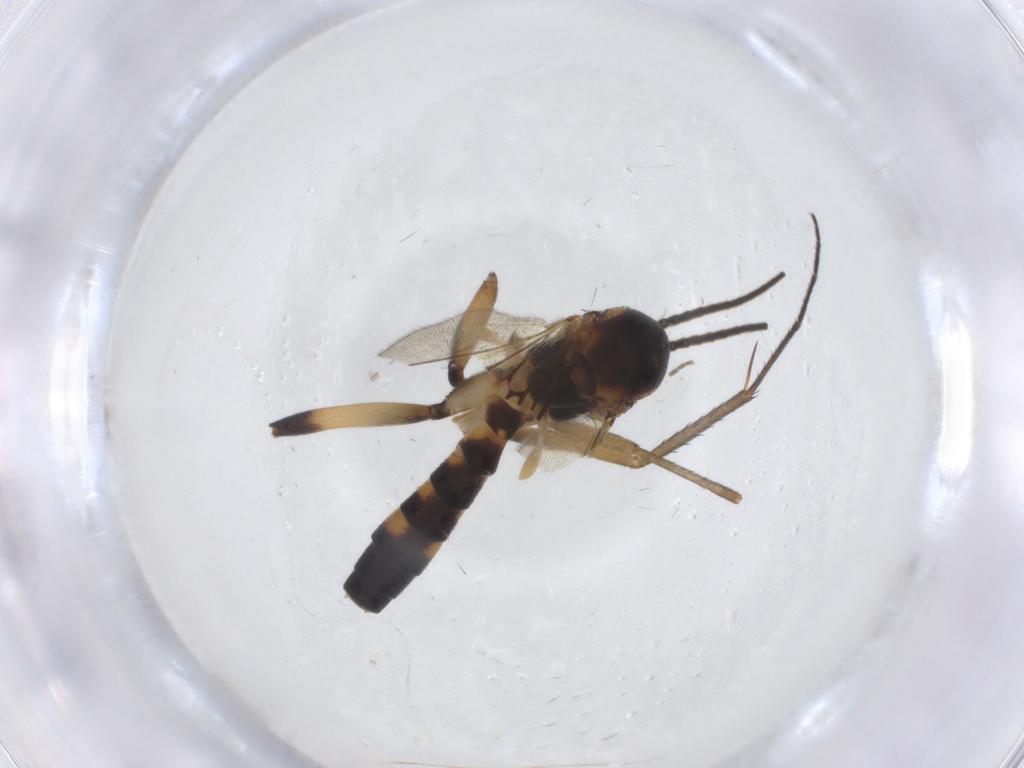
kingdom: Animalia
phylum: Arthropoda
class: Insecta
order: Diptera
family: Mycetophilidae
